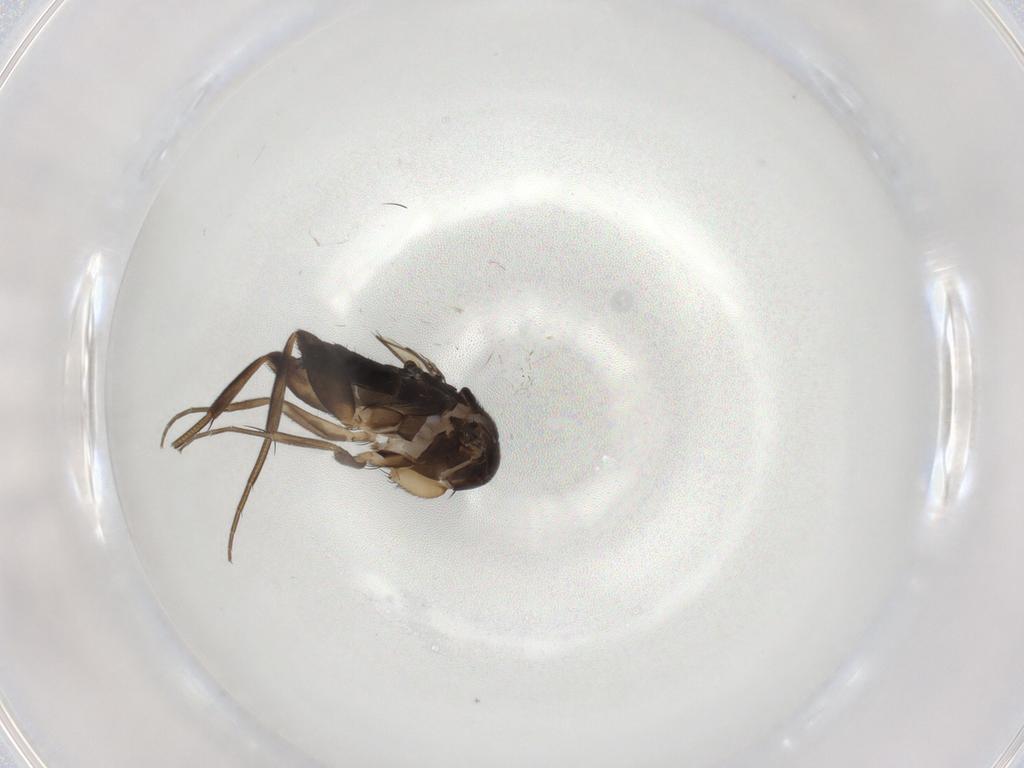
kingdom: Animalia
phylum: Arthropoda
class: Insecta
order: Diptera
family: Phoridae
